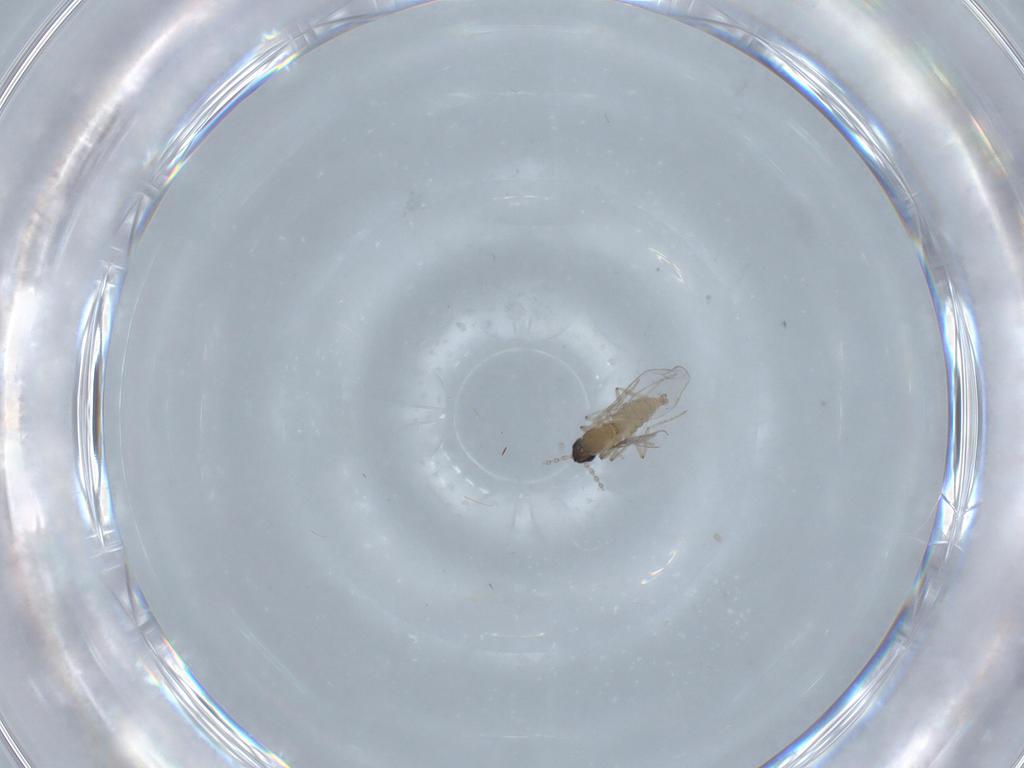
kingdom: Animalia
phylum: Arthropoda
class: Insecta
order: Diptera
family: Cecidomyiidae
